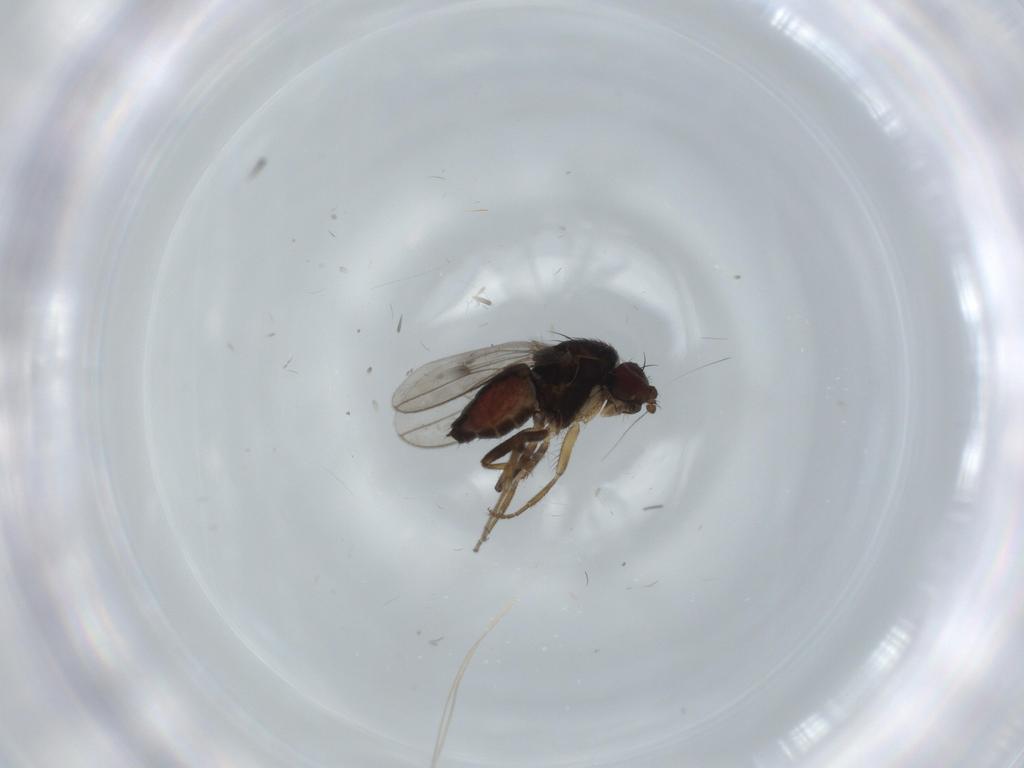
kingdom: Animalia
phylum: Arthropoda
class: Insecta
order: Diptera
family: Sphaeroceridae
